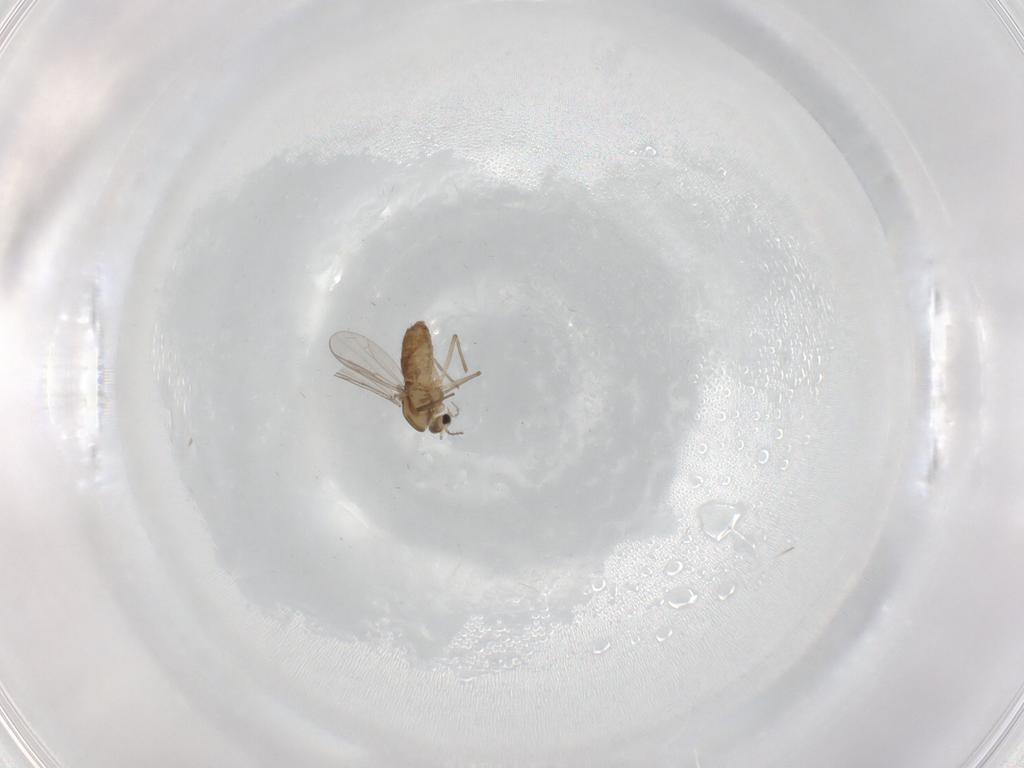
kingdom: Animalia
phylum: Arthropoda
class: Insecta
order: Diptera
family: Chironomidae
